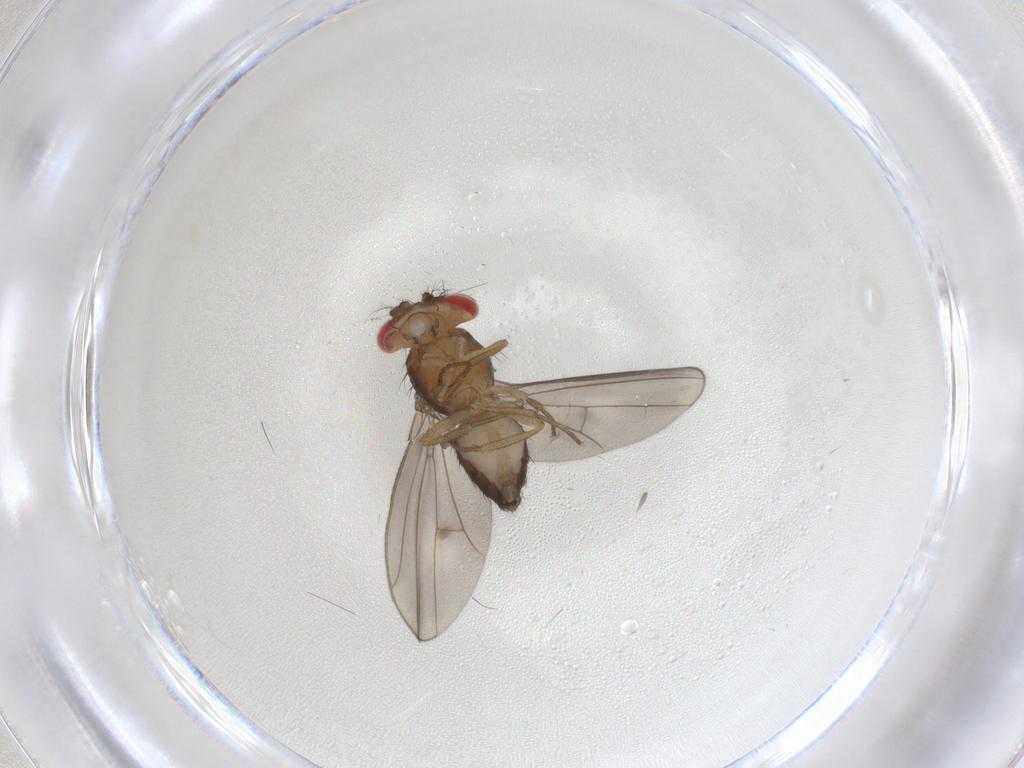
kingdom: Animalia
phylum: Arthropoda
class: Insecta
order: Diptera
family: Drosophilidae
